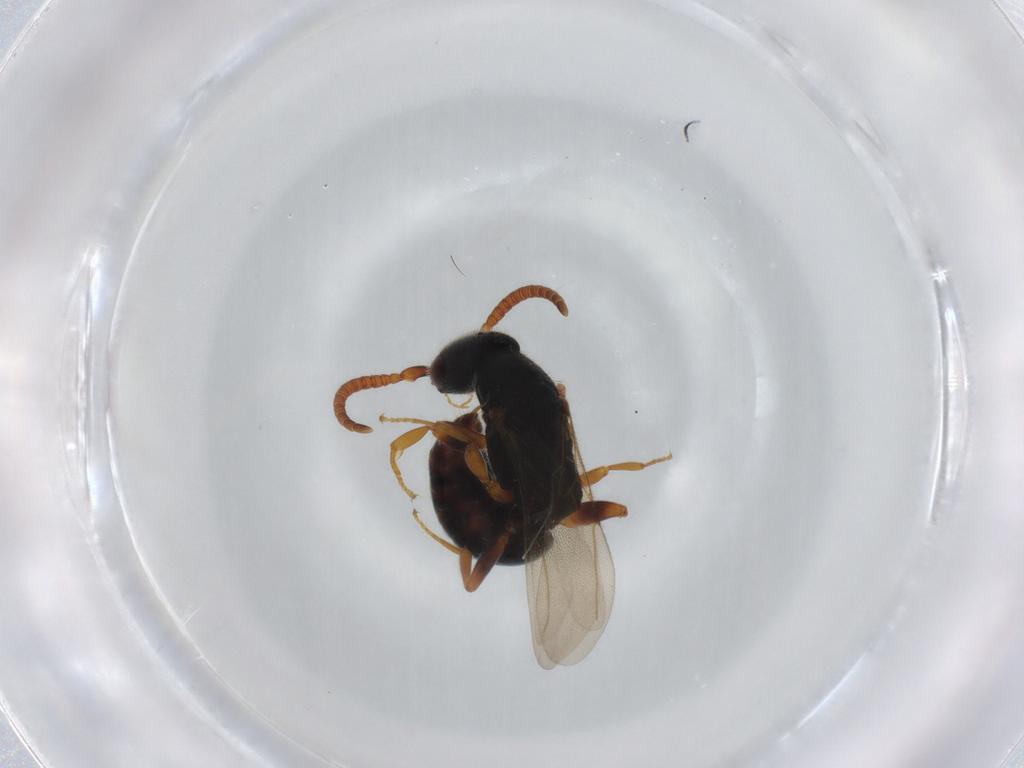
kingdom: Animalia
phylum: Arthropoda
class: Insecta
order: Hymenoptera
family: Bethylidae
